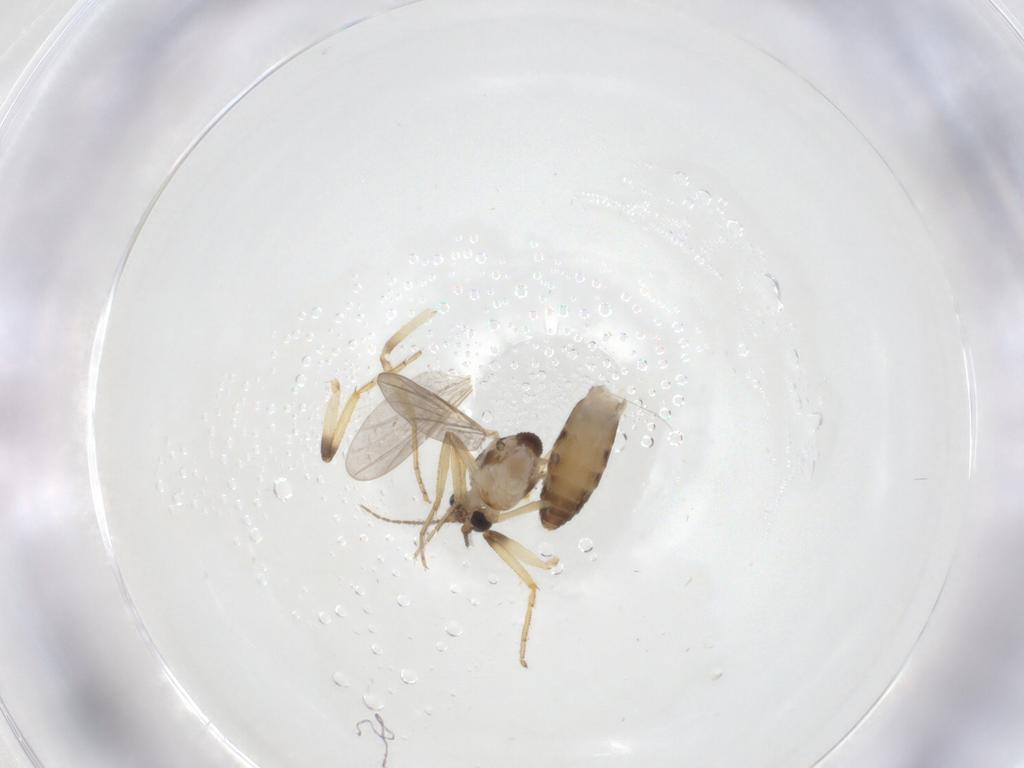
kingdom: Animalia
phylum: Arthropoda
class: Insecta
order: Diptera
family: Ceratopogonidae
